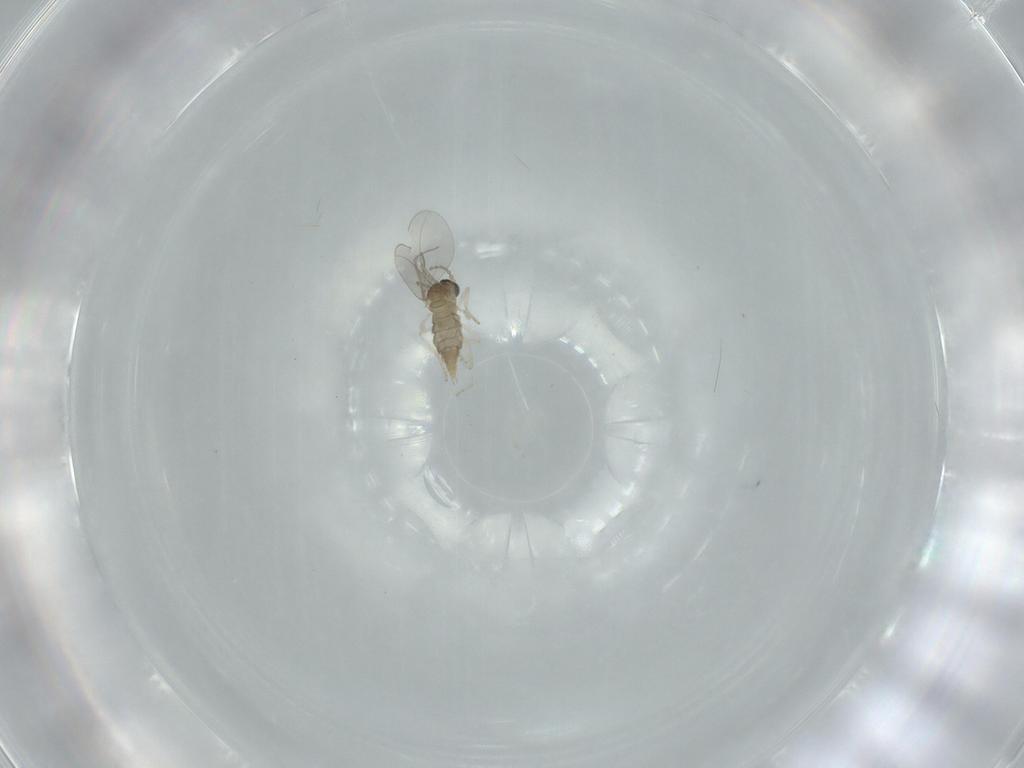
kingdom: Animalia
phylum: Arthropoda
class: Insecta
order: Diptera
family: Cecidomyiidae
